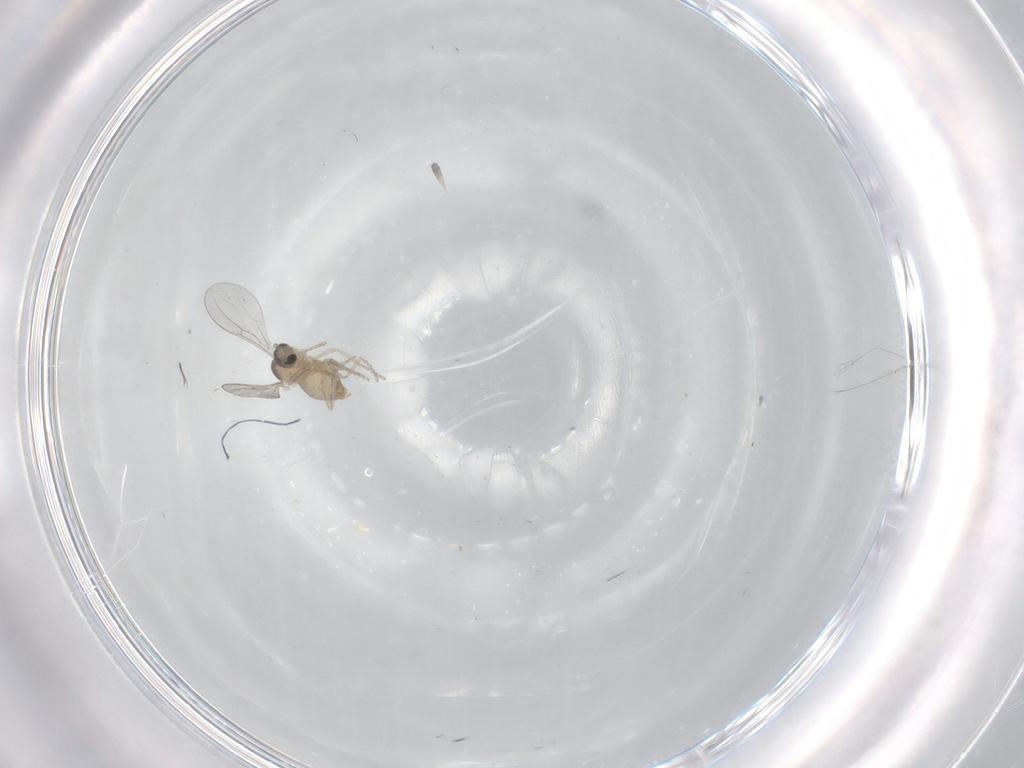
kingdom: Animalia
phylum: Arthropoda
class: Insecta
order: Diptera
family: Cecidomyiidae
